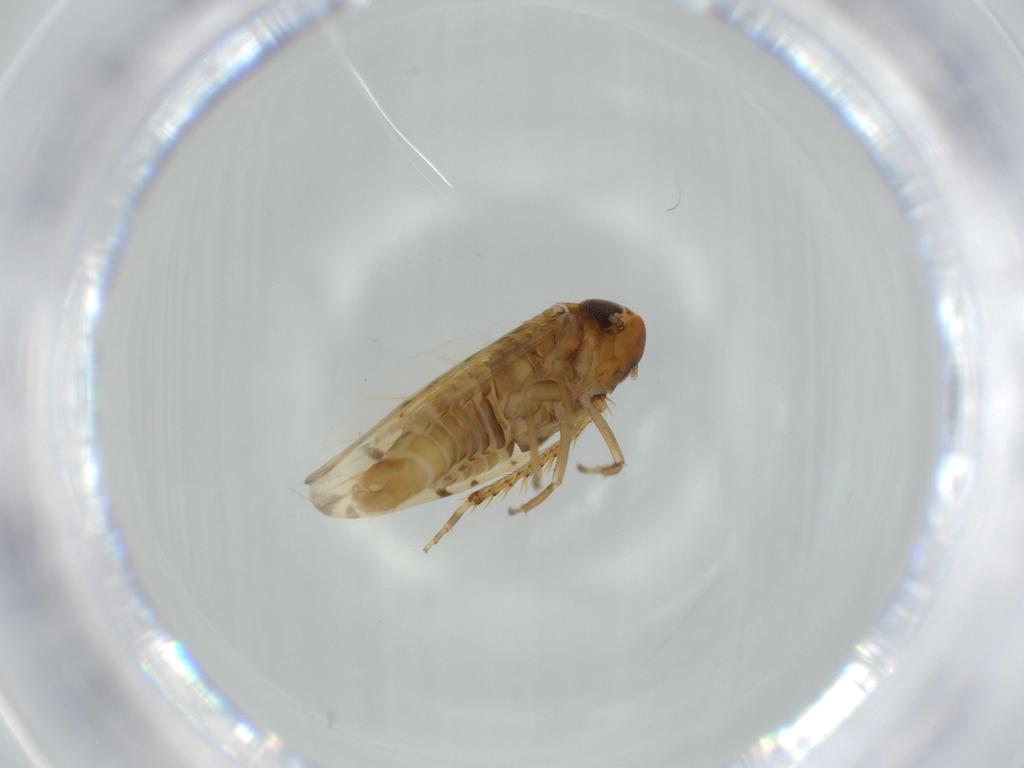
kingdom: Animalia
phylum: Arthropoda
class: Insecta
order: Hemiptera
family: Cicadellidae
